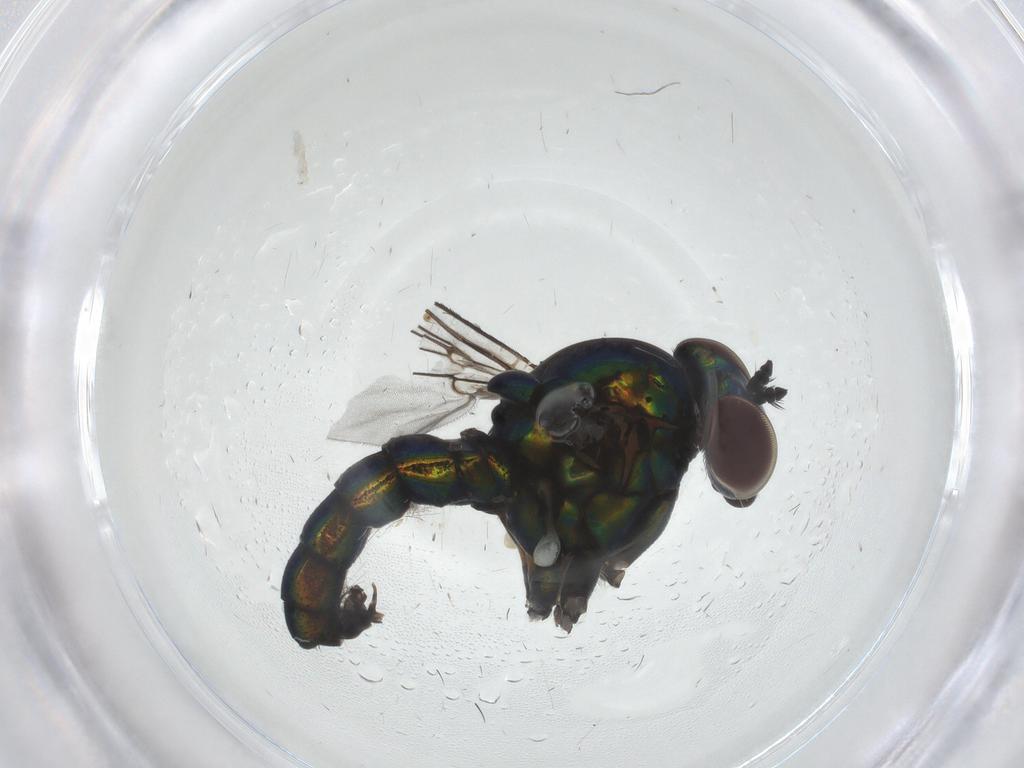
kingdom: Animalia
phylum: Arthropoda
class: Insecta
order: Diptera
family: Dolichopodidae
